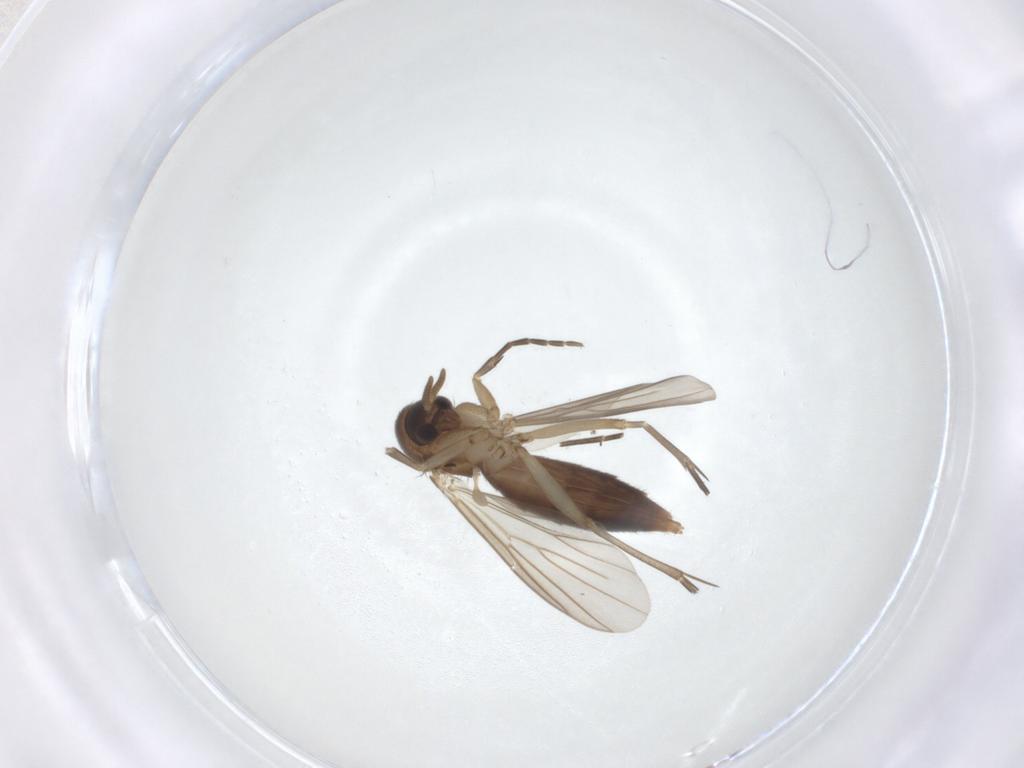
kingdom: Animalia
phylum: Arthropoda
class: Insecta
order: Diptera
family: Mycetophilidae
